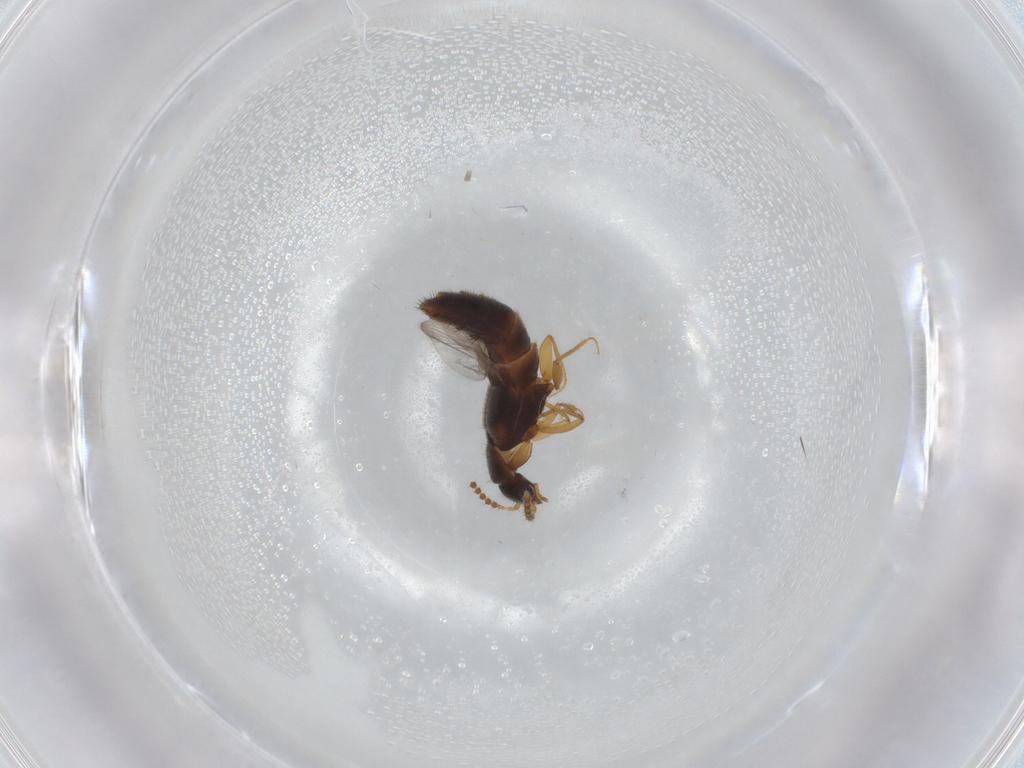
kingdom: Animalia
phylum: Arthropoda
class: Insecta
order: Coleoptera
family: Staphylinidae
